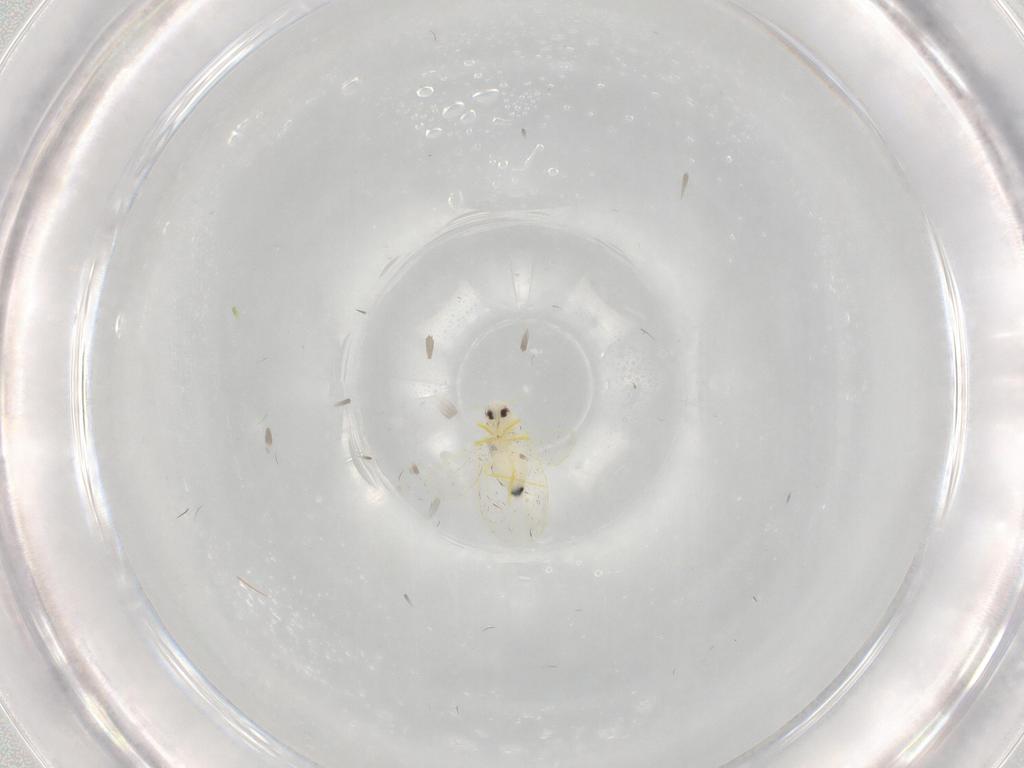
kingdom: Animalia
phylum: Arthropoda
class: Insecta
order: Hemiptera
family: Aleyrodidae
